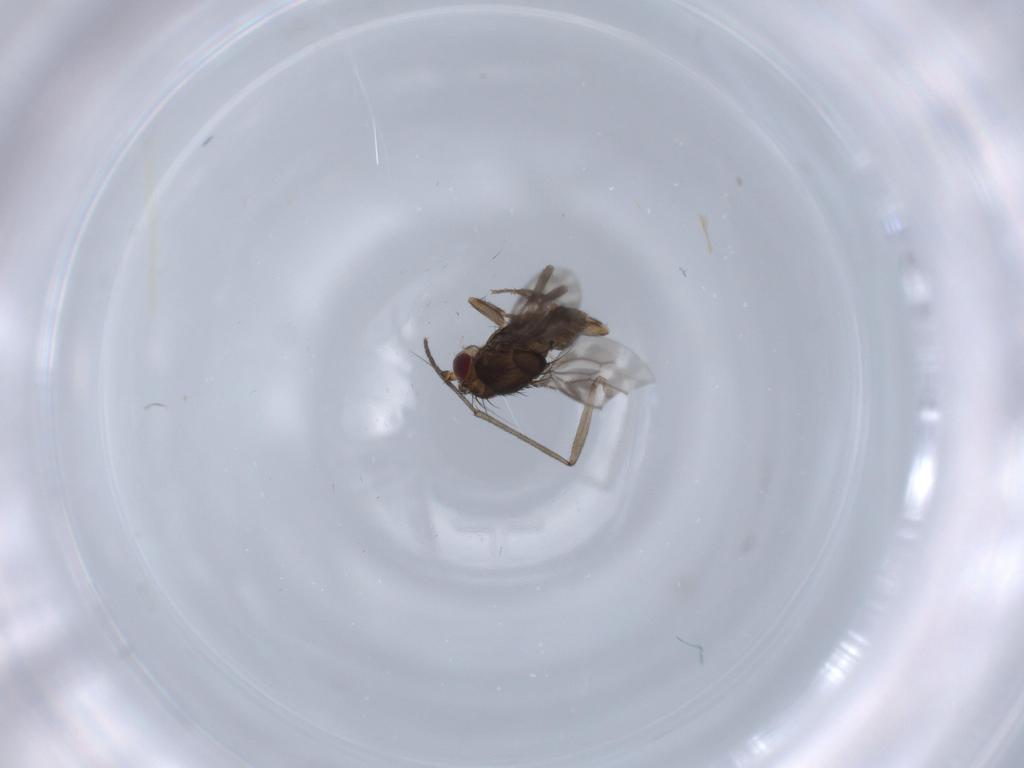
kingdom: Animalia
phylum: Arthropoda
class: Insecta
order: Diptera
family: Sphaeroceridae
